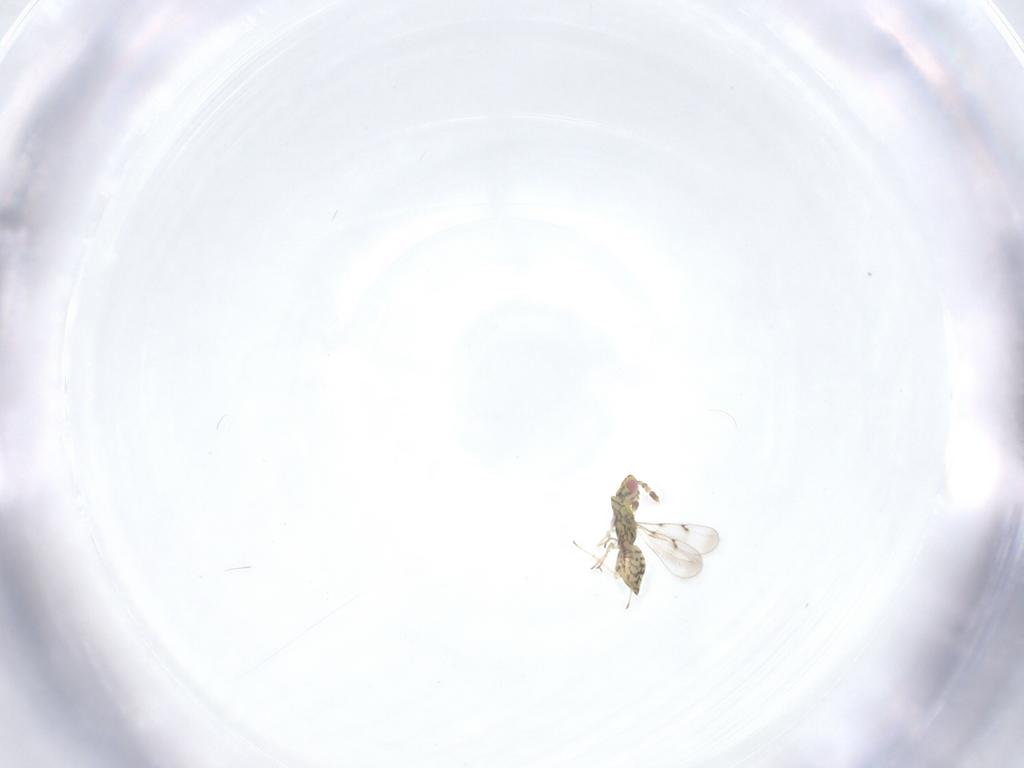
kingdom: Animalia
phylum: Arthropoda
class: Insecta
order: Hymenoptera
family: Eulophidae
